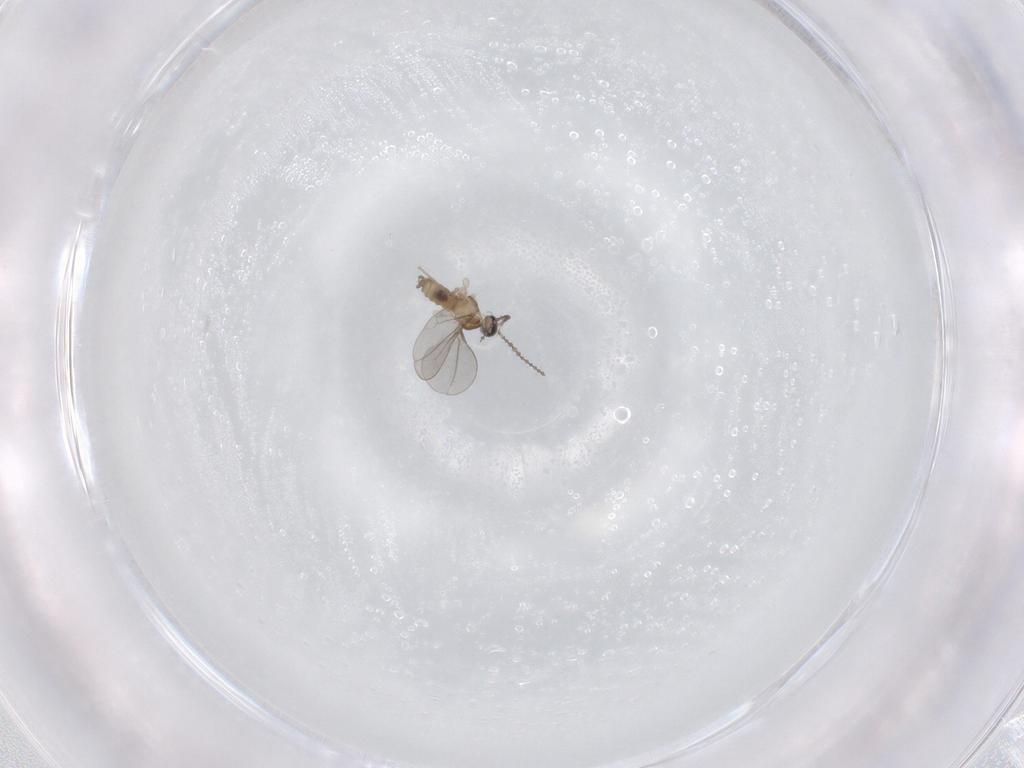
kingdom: Animalia
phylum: Arthropoda
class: Insecta
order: Diptera
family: Cecidomyiidae
